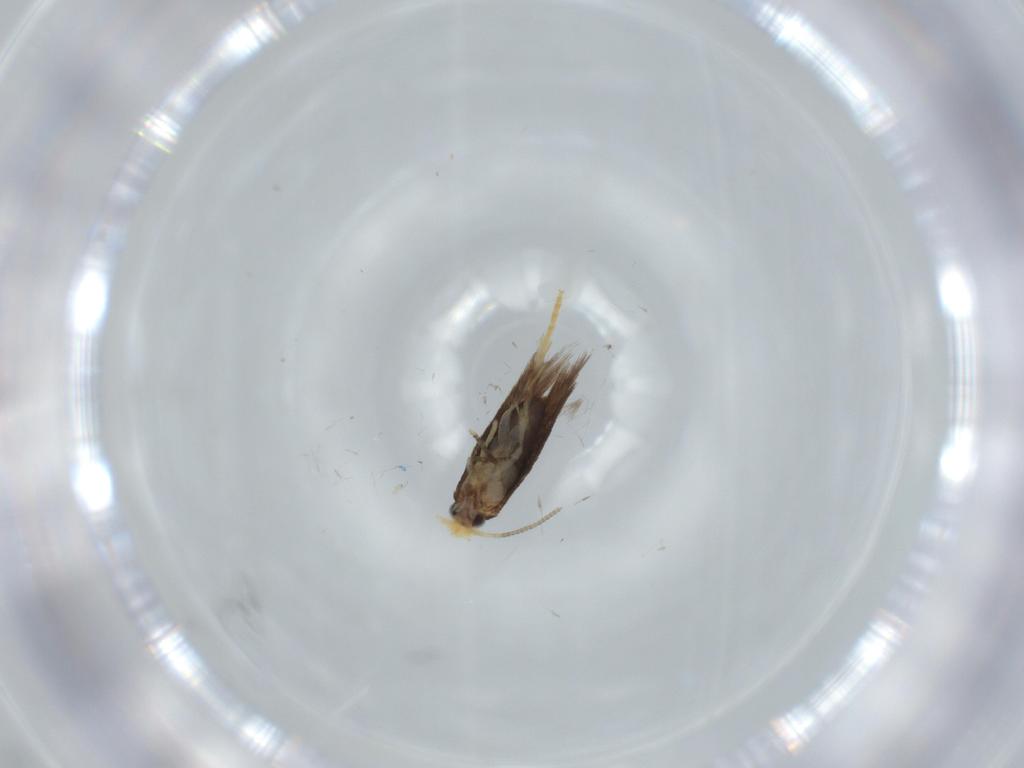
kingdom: Animalia
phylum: Arthropoda
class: Insecta
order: Lepidoptera
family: Nepticulidae
